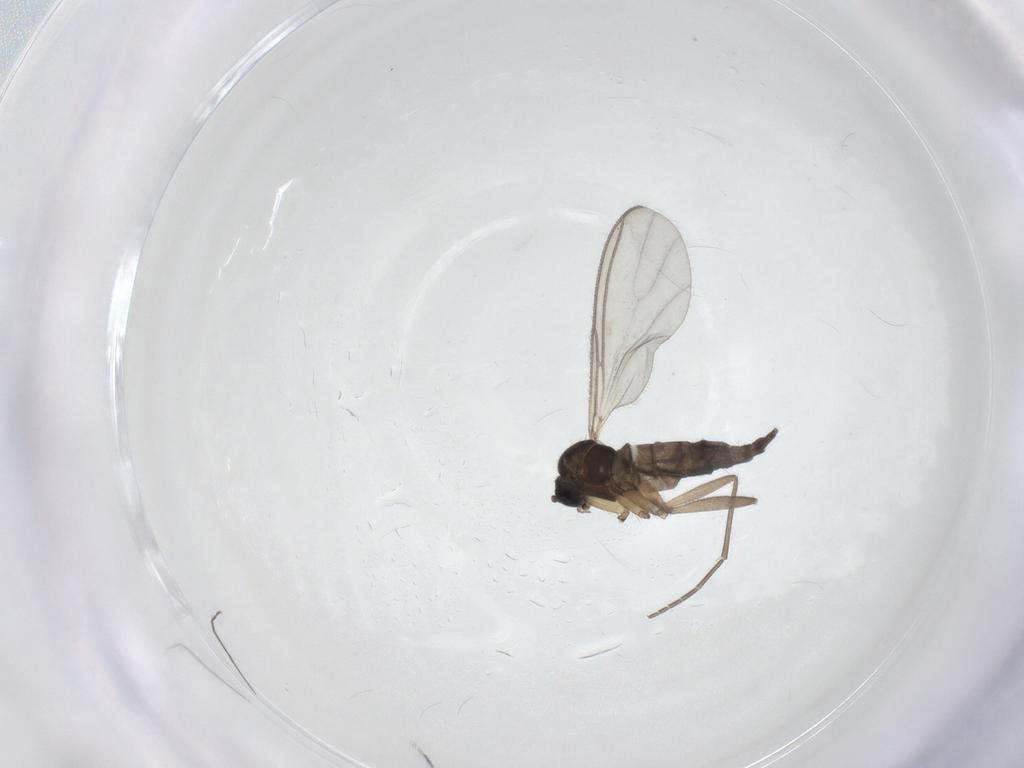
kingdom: Animalia
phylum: Arthropoda
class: Insecta
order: Diptera
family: Sciaridae
